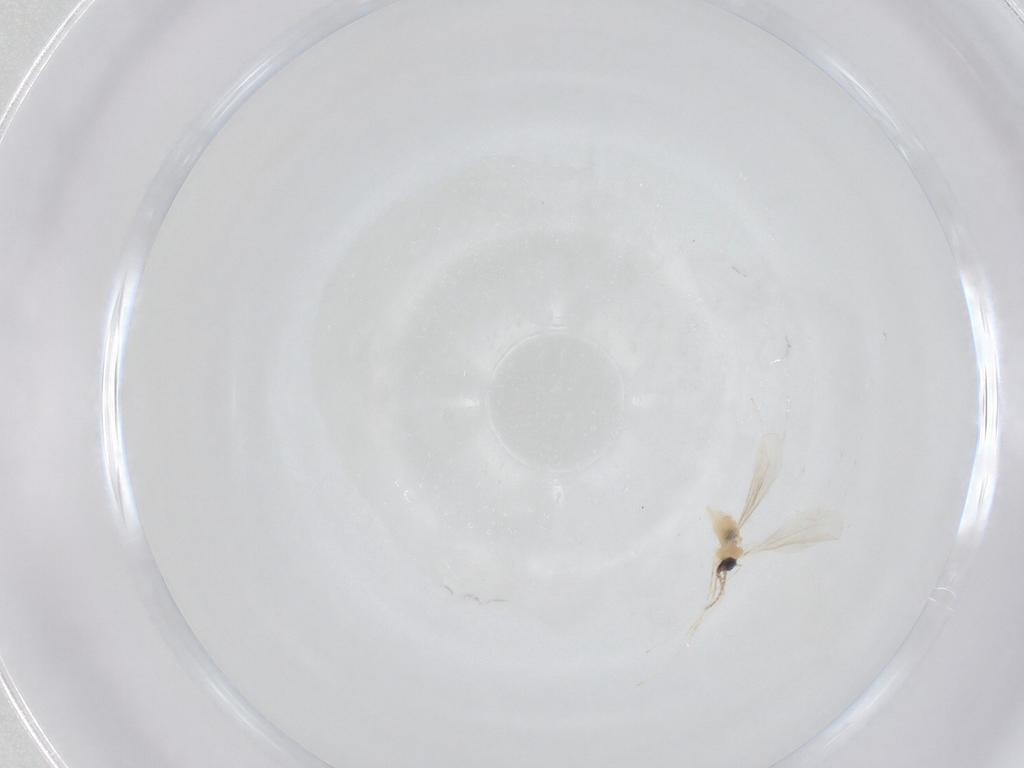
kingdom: Animalia
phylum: Arthropoda
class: Insecta
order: Diptera
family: Cecidomyiidae
